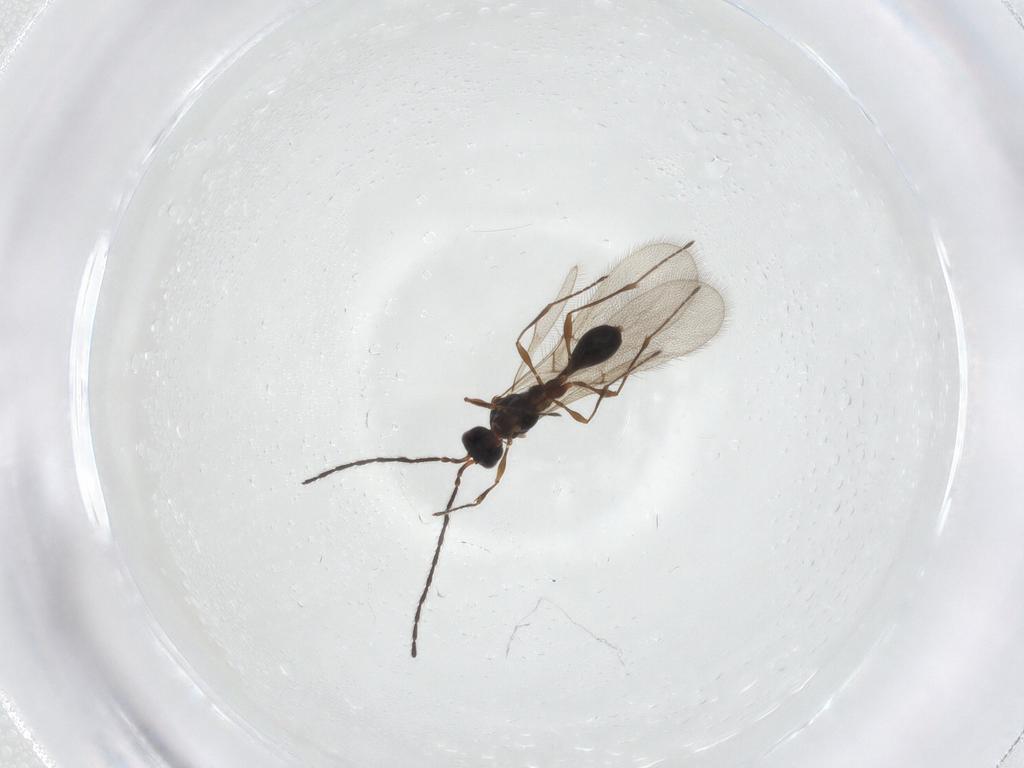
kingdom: Animalia
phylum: Arthropoda
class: Insecta
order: Hymenoptera
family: Diapriidae
